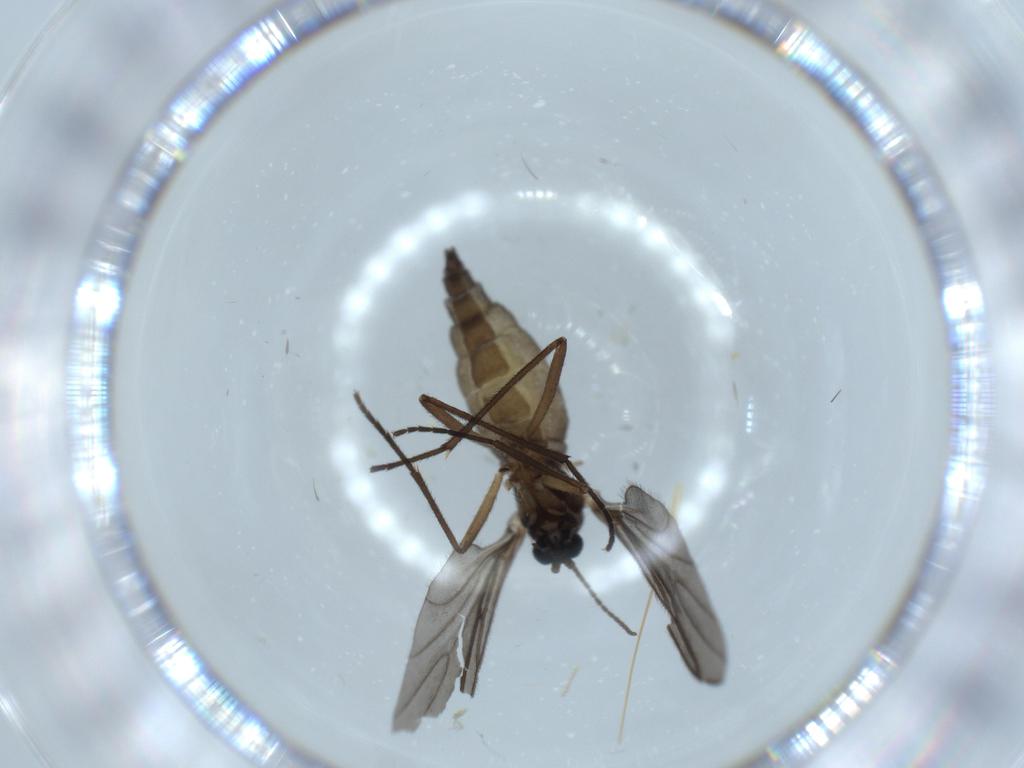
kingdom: Animalia
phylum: Arthropoda
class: Insecta
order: Diptera
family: Sciaridae
